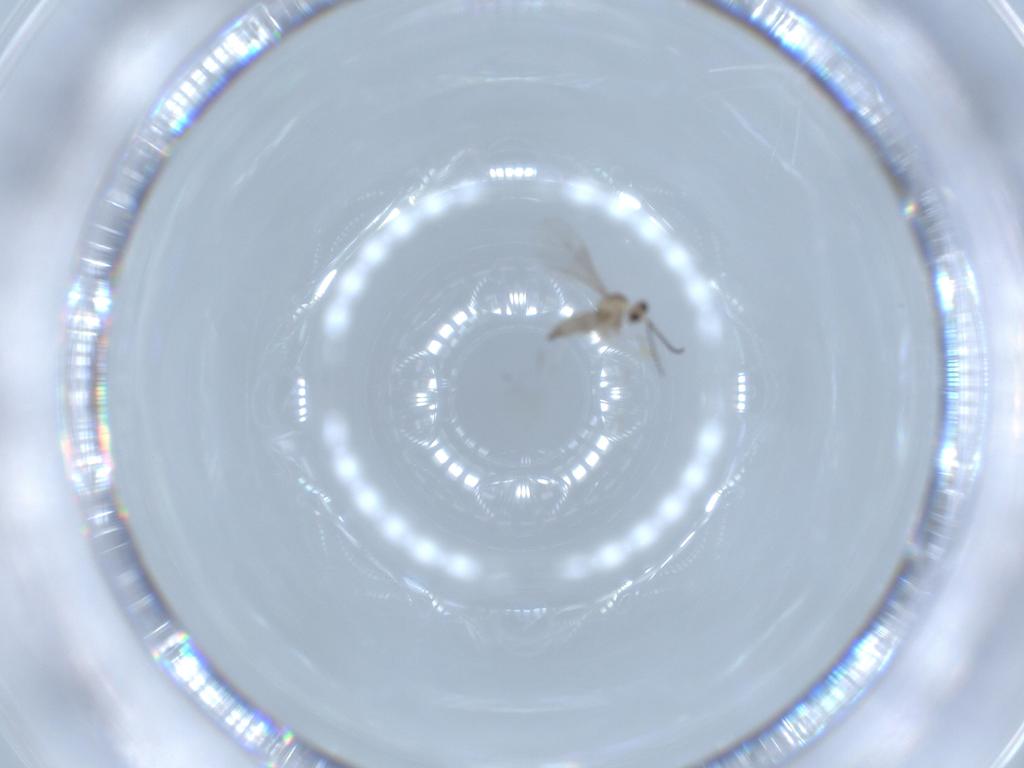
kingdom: Animalia
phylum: Arthropoda
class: Insecta
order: Diptera
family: Cecidomyiidae
